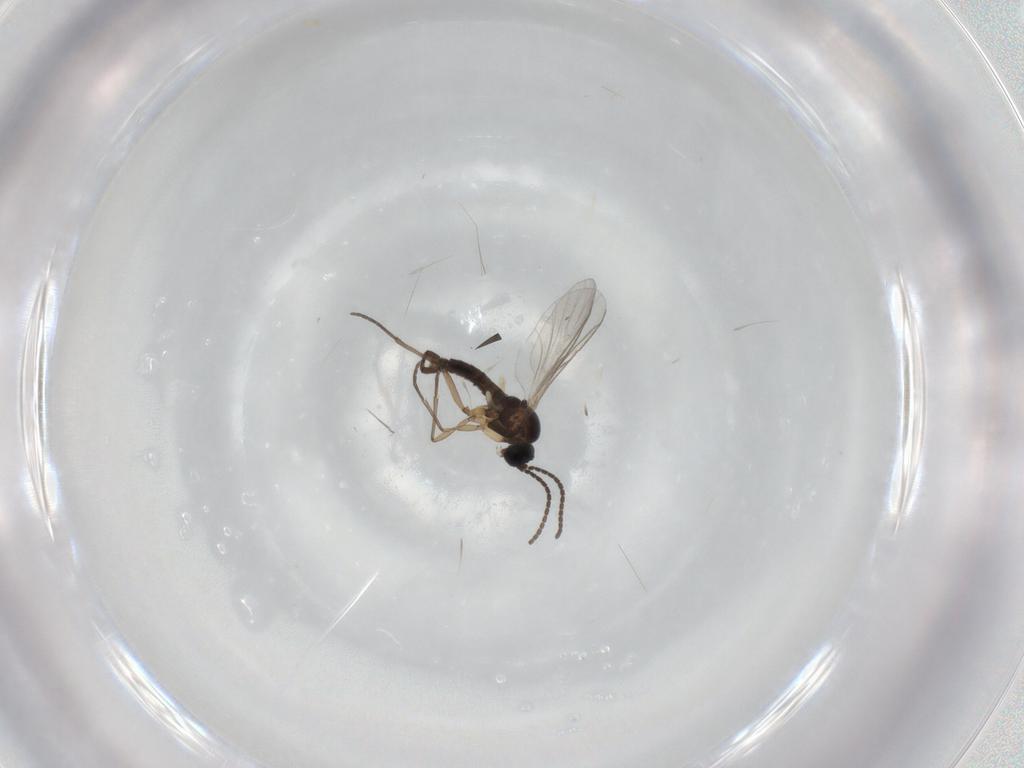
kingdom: Animalia
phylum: Arthropoda
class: Insecta
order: Diptera
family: Sciaridae
